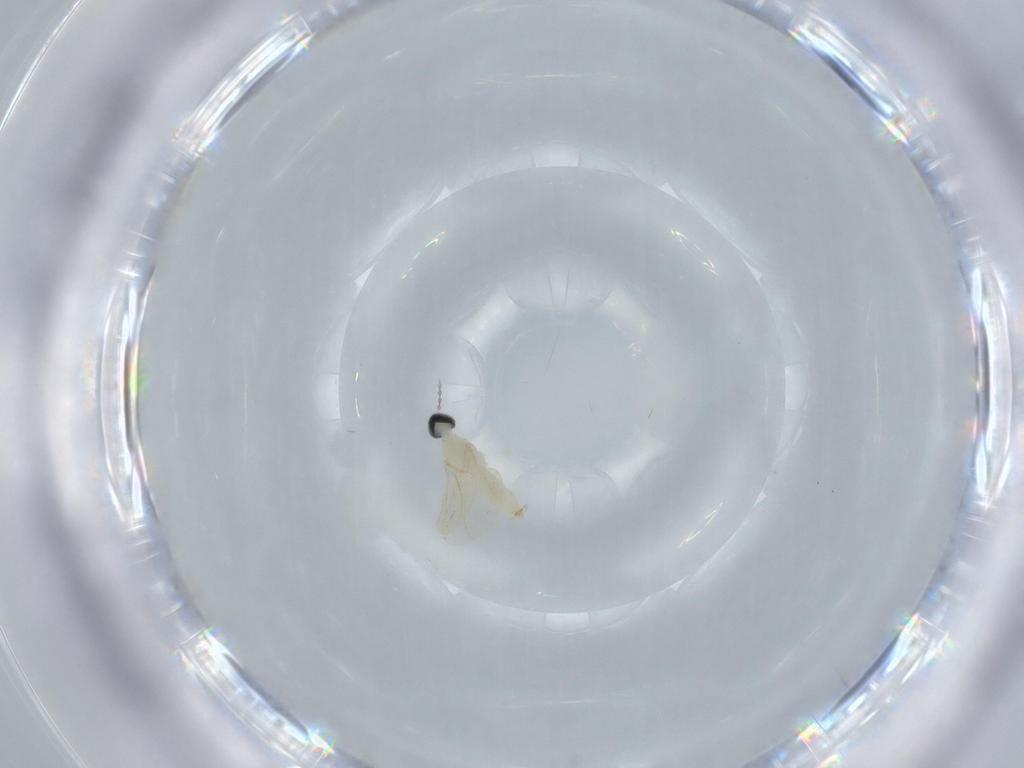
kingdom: Animalia
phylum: Arthropoda
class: Insecta
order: Diptera
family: Cecidomyiidae
